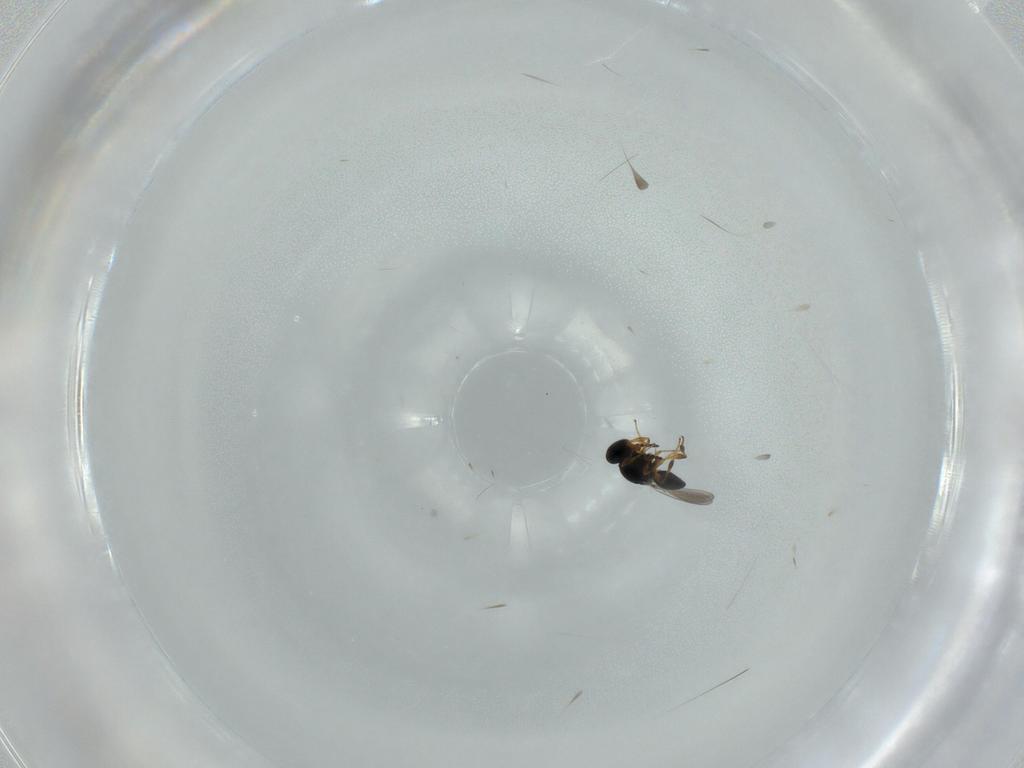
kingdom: Animalia
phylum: Arthropoda
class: Insecta
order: Hymenoptera
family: Platygastridae
